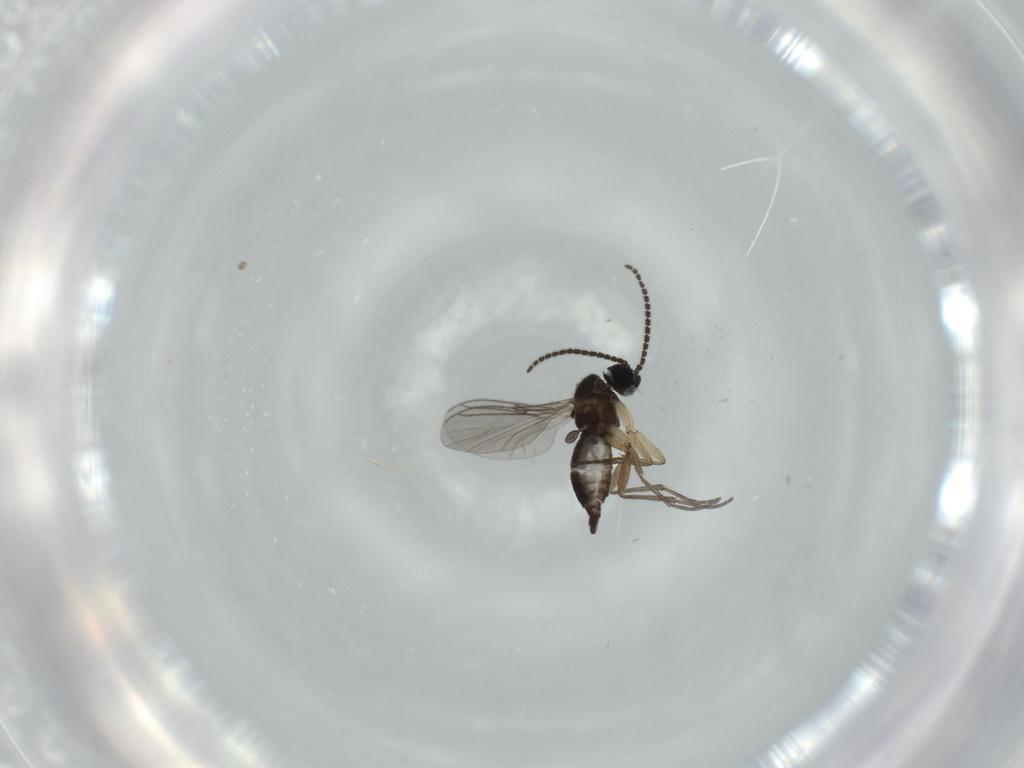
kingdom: Animalia
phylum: Arthropoda
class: Insecta
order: Diptera
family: Sciaridae
